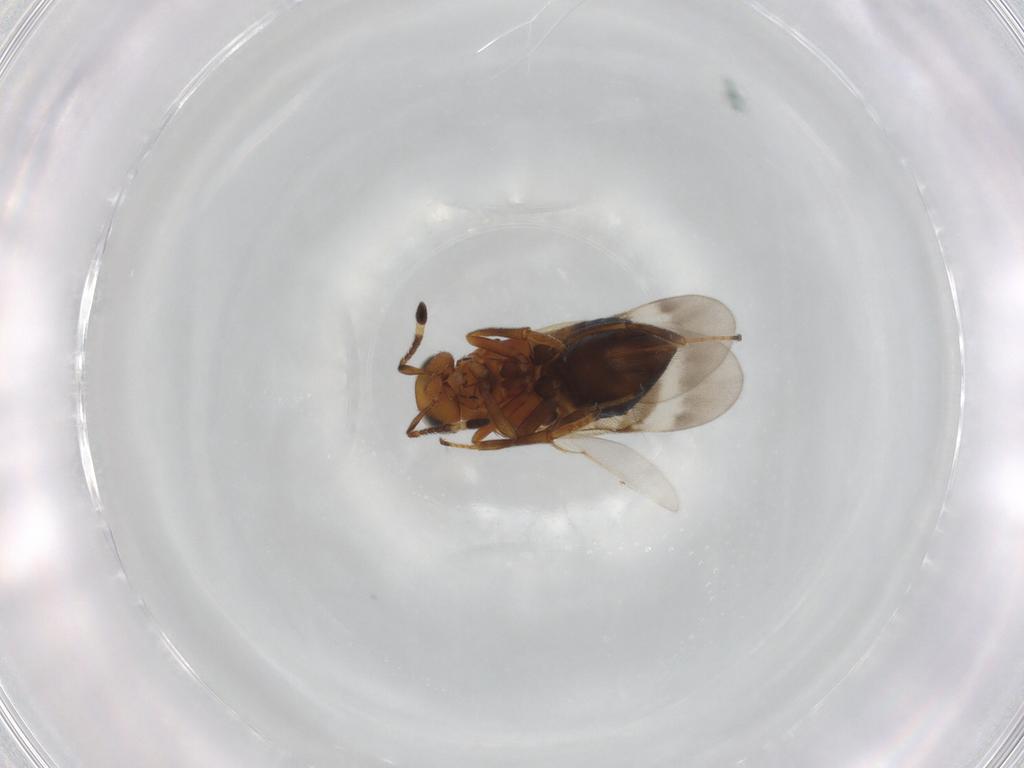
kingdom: Animalia
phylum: Arthropoda
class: Insecta
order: Hymenoptera
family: Encyrtidae
